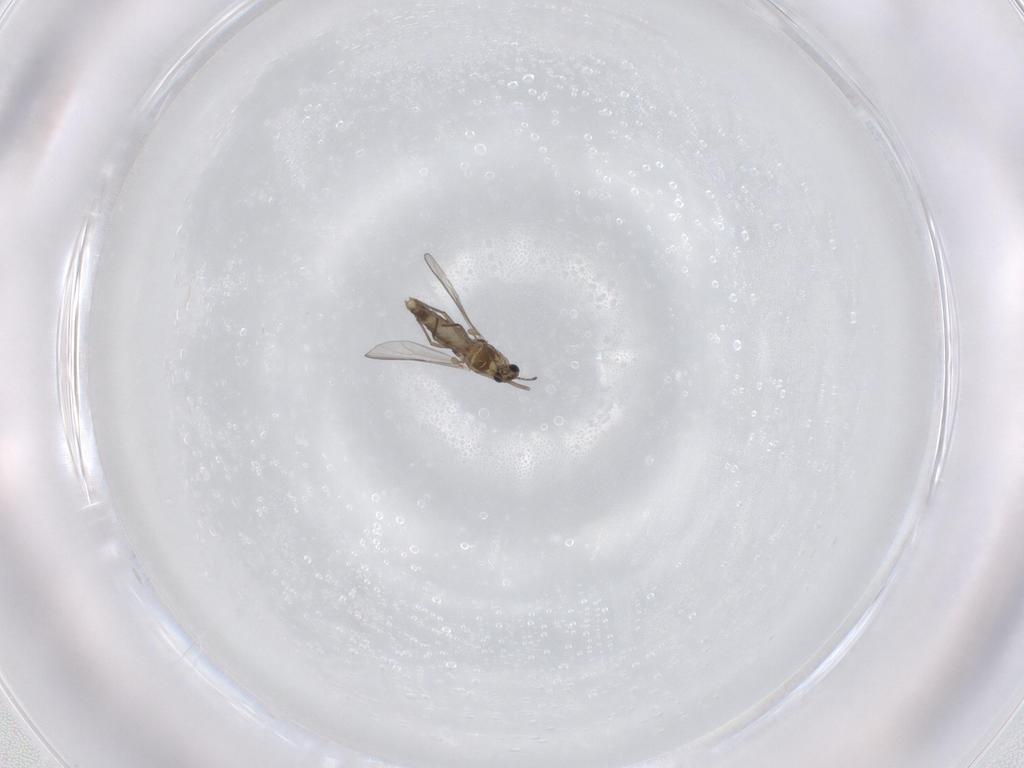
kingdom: Animalia
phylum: Arthropoda
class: Insecta
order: Diptera
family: Chironomidae
